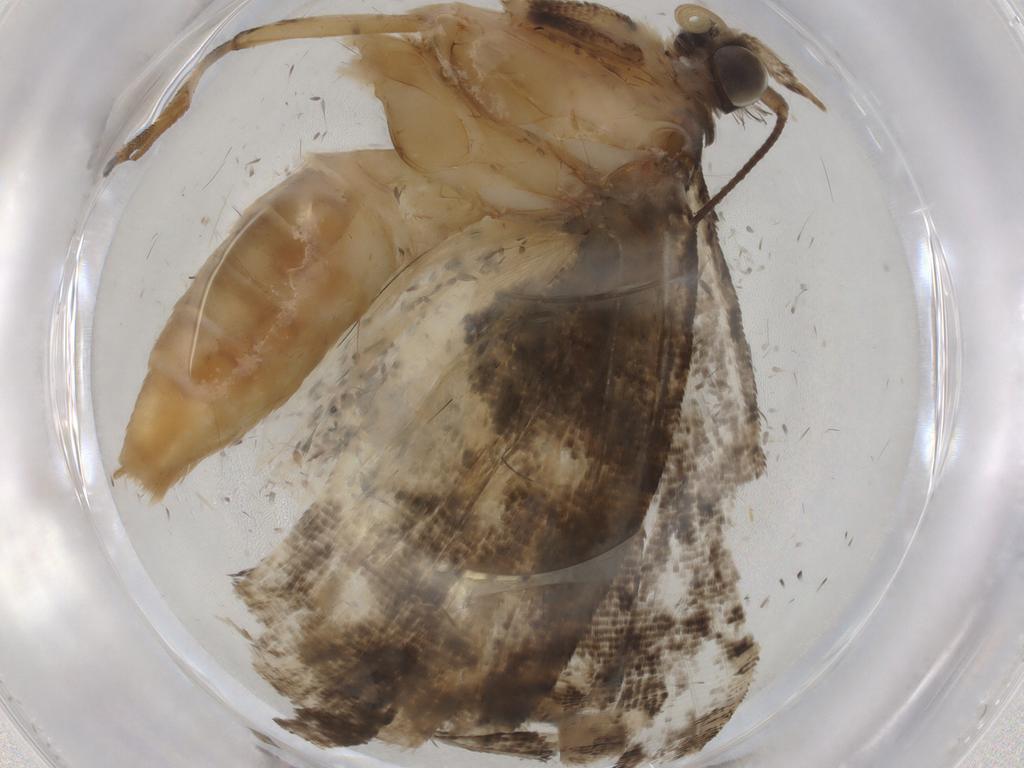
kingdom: Animalia
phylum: Arthropoda
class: Insecta
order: Lepidoptera
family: Tortricidae
